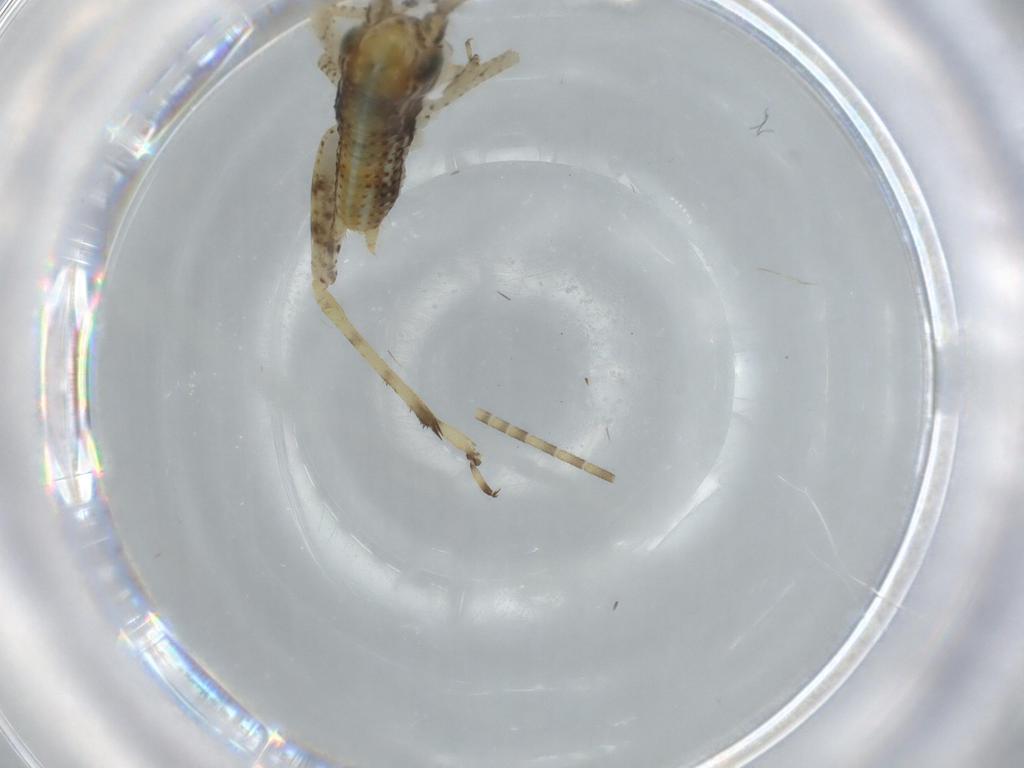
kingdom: Animalia
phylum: Arthropoda
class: Insecta
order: Orthoptera
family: Gryllidae
